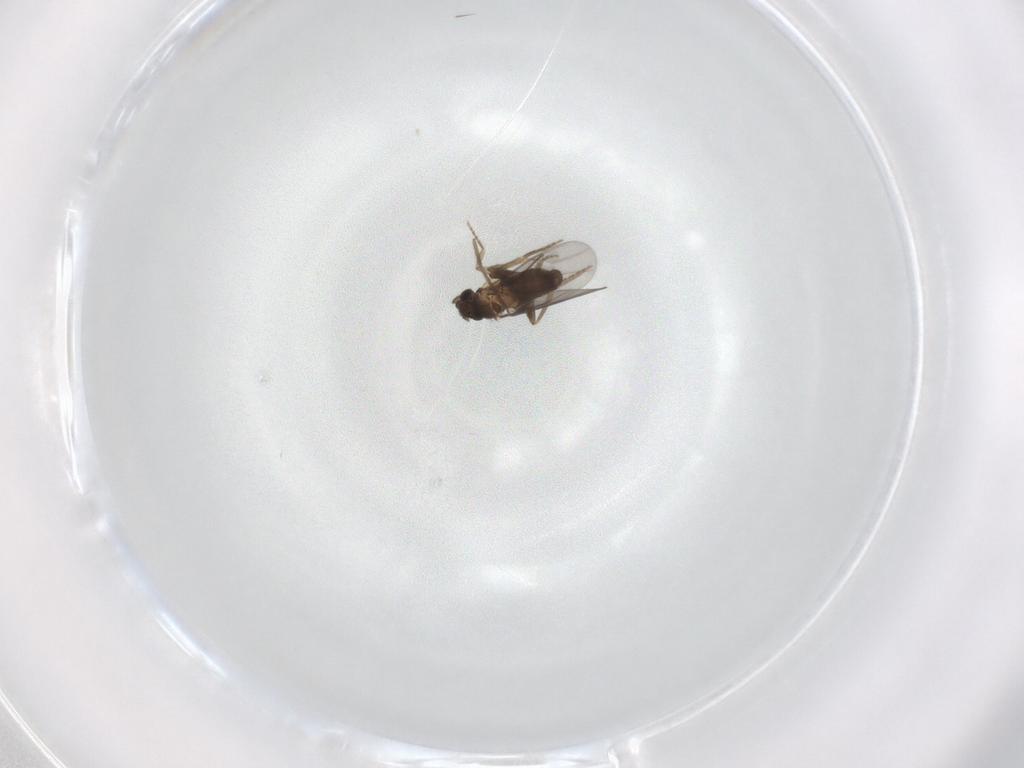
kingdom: Animalia
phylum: Arthropoda
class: Insecta
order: Diptera
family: Chironomidae
